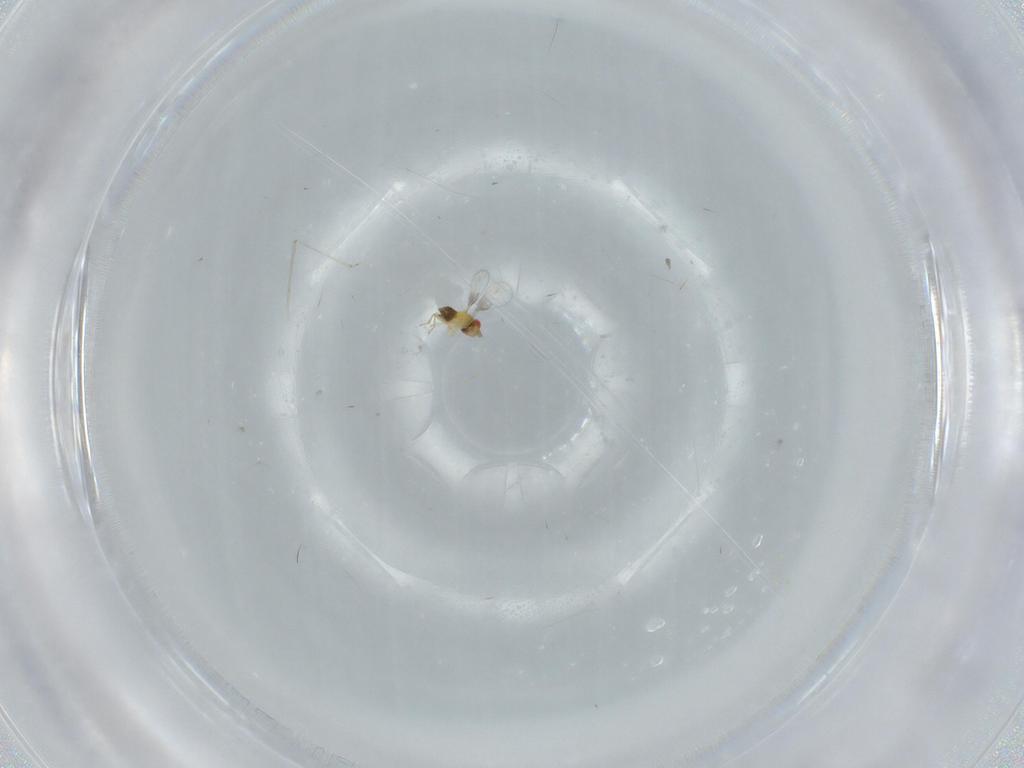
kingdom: Animalia
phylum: Arthropoda
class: Insecta
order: Hymenoptera
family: Trichogrammatidae
